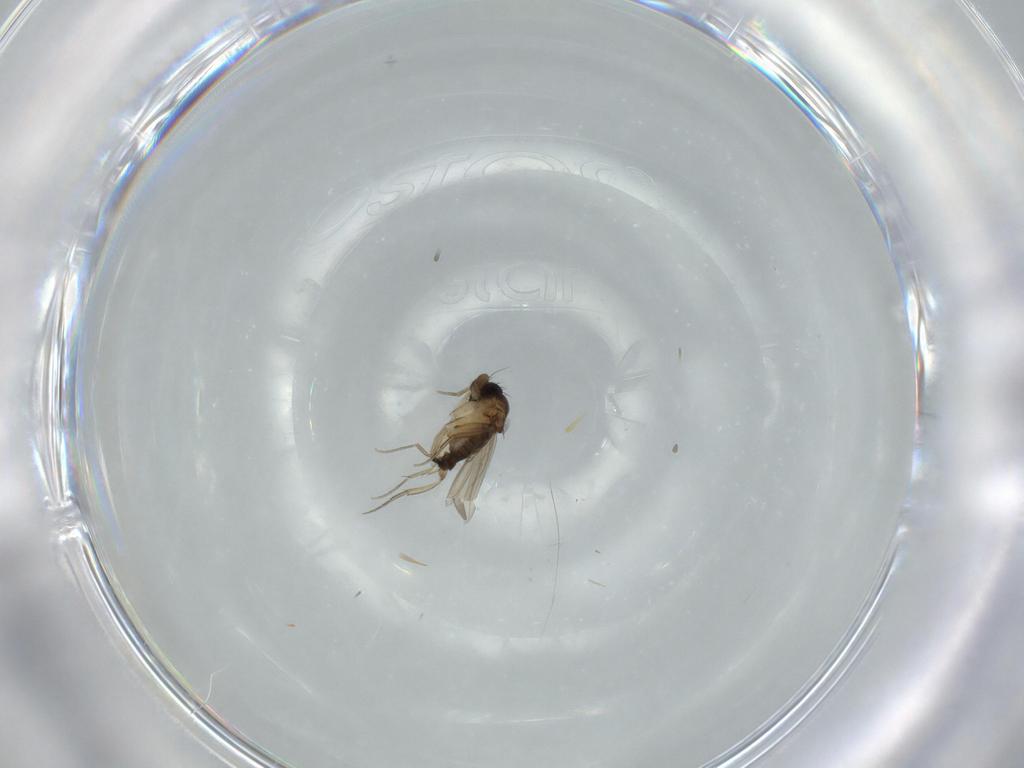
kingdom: Animalia
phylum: Arthropoda
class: Insecta
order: Diptera
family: Phoridae
